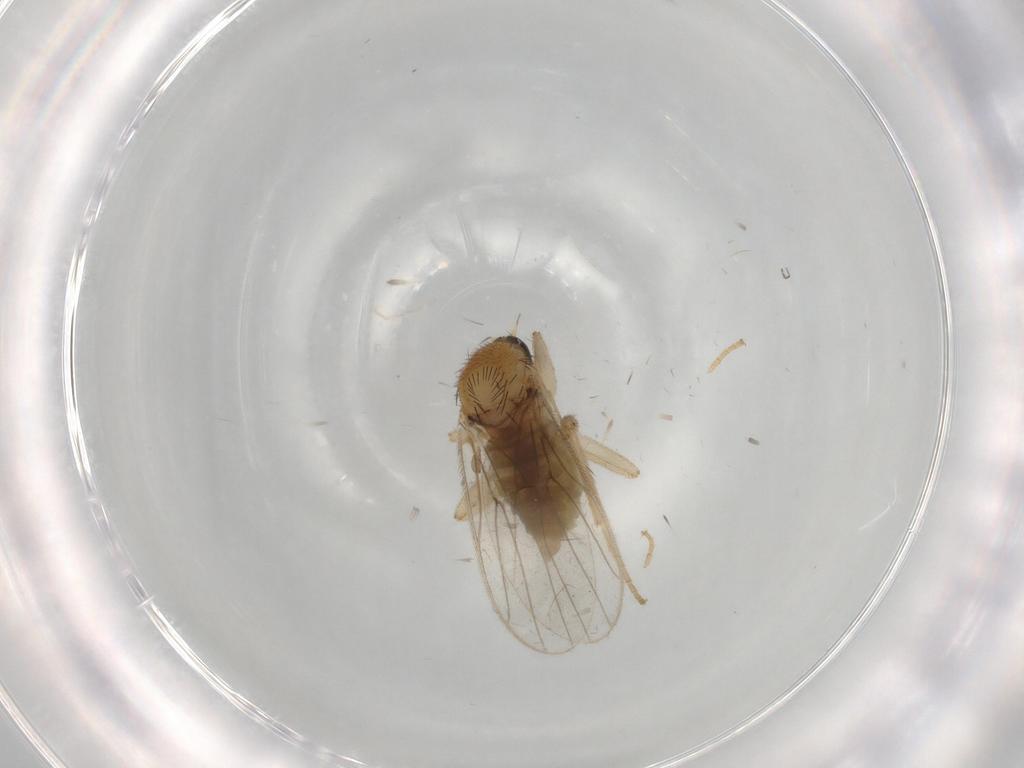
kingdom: Animalia
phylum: Arthropoda
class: Insecta
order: Diptera
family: Hybotidae
